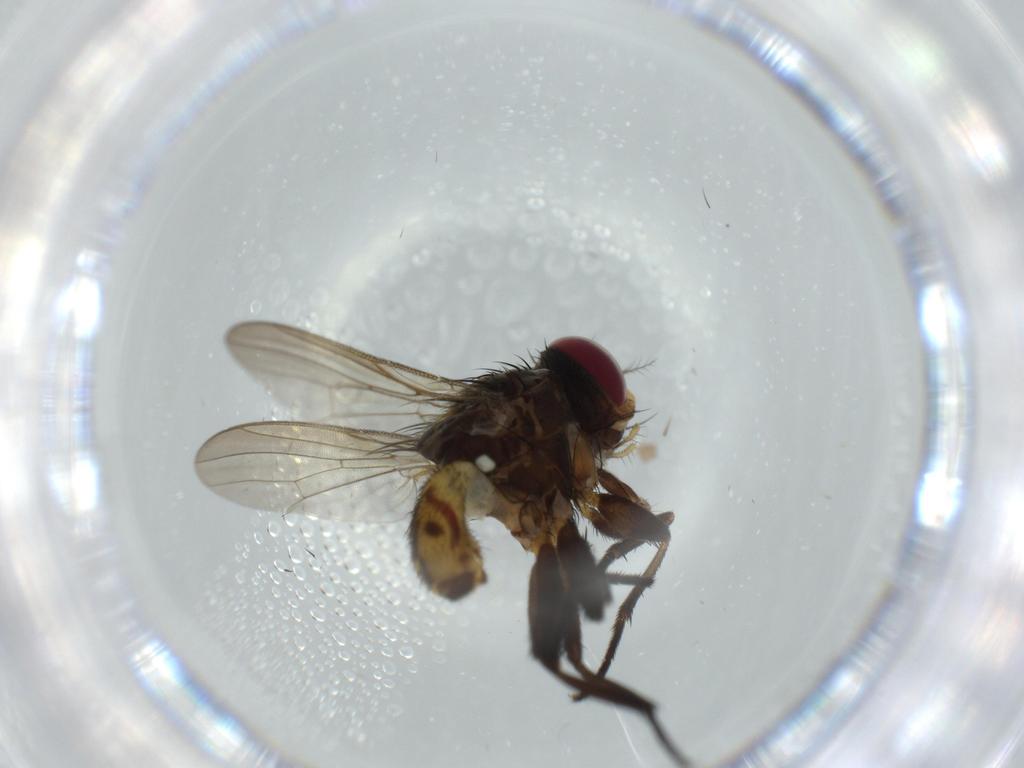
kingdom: Animalia
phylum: Arthropoda
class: Insecta
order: Diptera
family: Anthomyiidae
